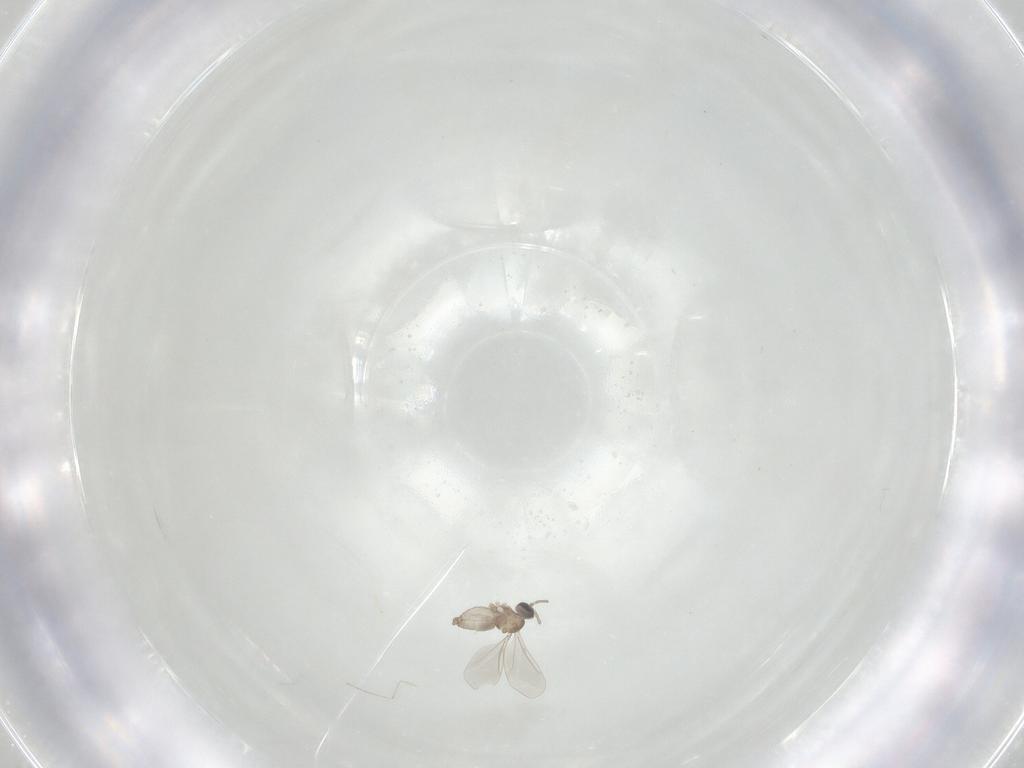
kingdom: Animalia
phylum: Arthropoda
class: Insecta
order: Diptera
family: Cecidomyiidae
